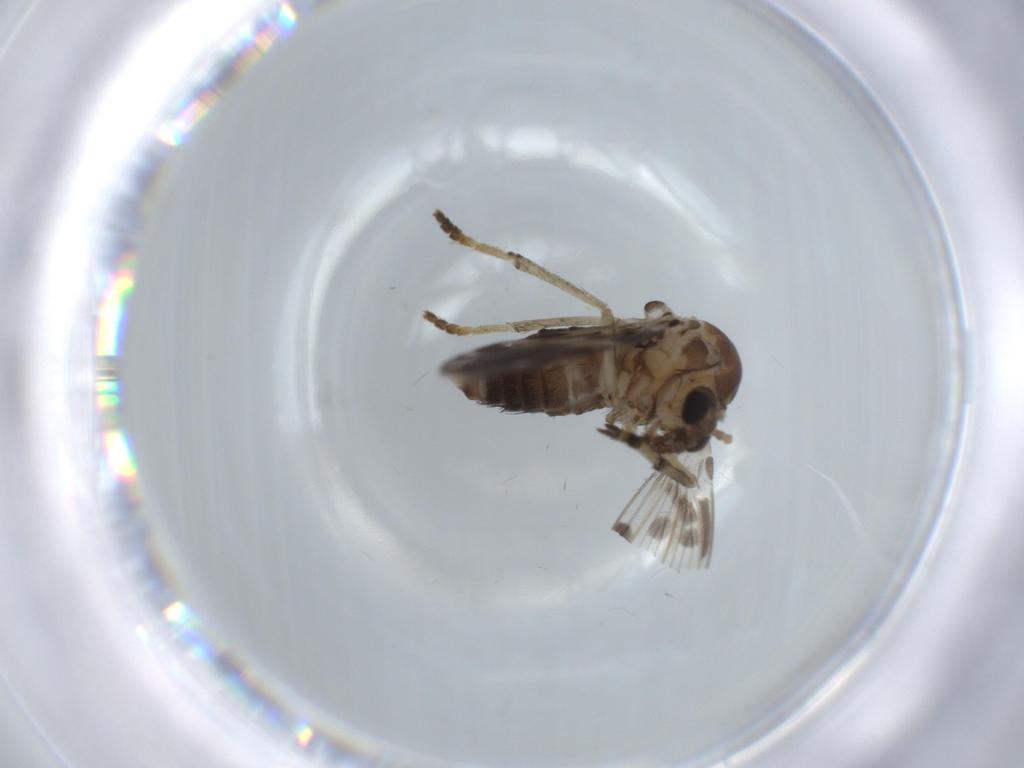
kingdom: Animalia
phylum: Arthropoda
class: Insecta
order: Diptera
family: Psychodidae
